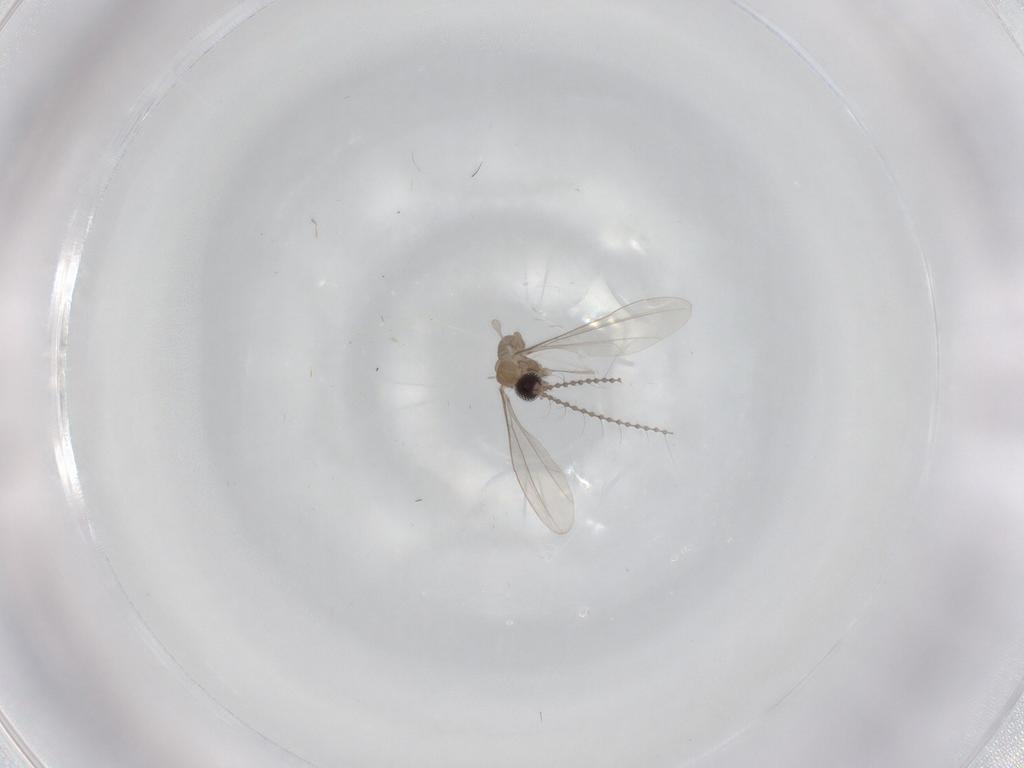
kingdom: Animalia
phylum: Arthropoda
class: Insecta
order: Diptera
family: Cecidomyiidae
